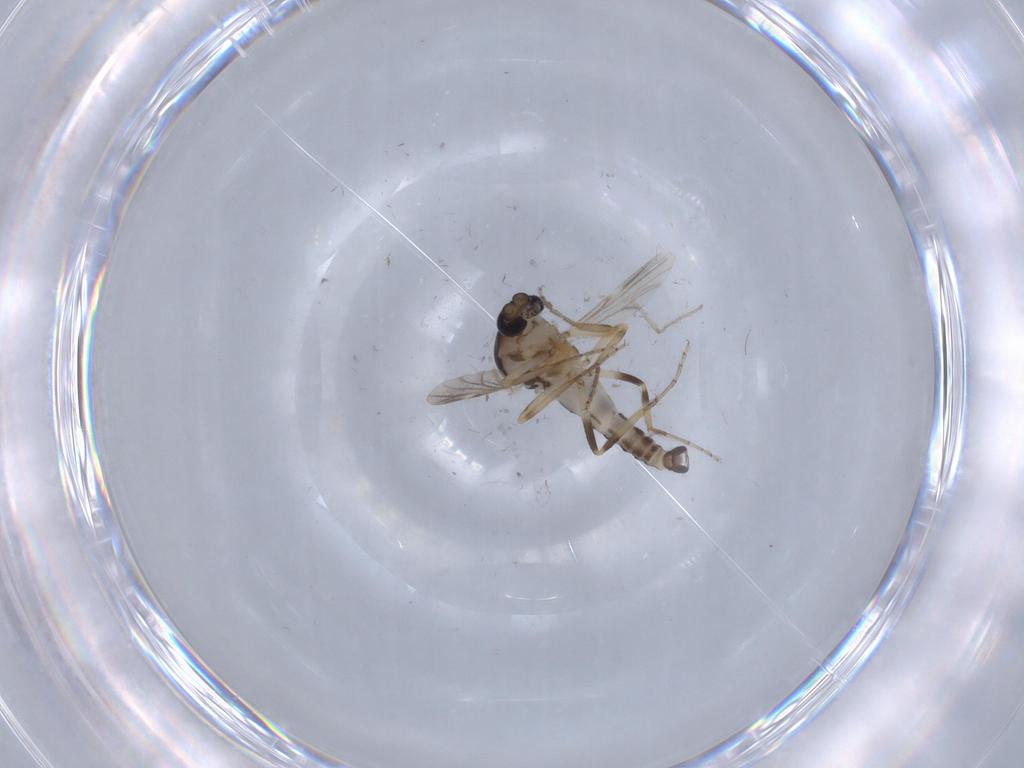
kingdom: Animalia
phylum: Arthropoda
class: Insecta
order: Diptera
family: Ceratopogonidae
